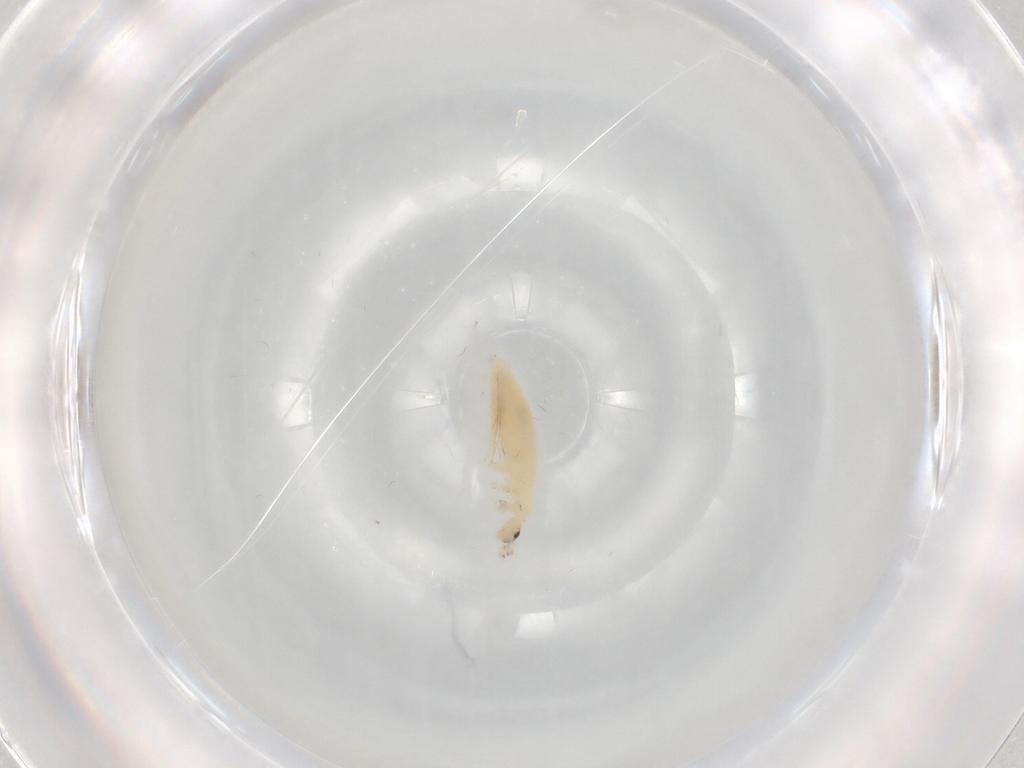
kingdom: Animalia
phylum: Arthropoda
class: Collembola
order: Entomobryomorpha
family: Entomobryidae
